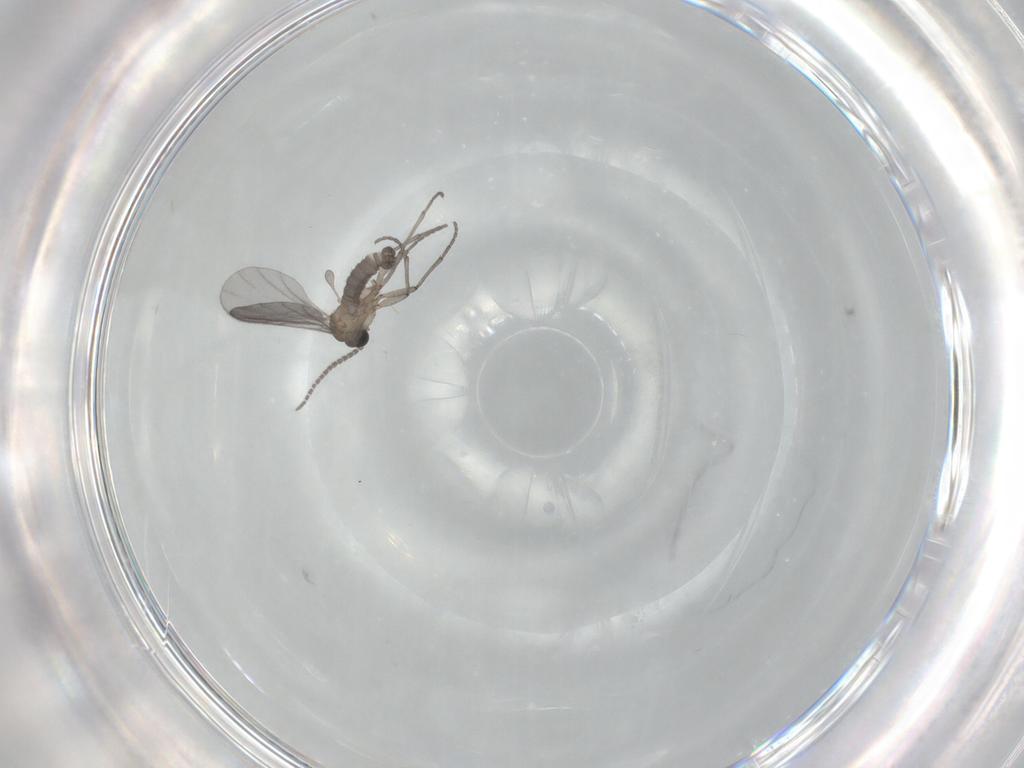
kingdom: Animalia
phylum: Arthropoda
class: Insecta
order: Diptera
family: Sciaridae
